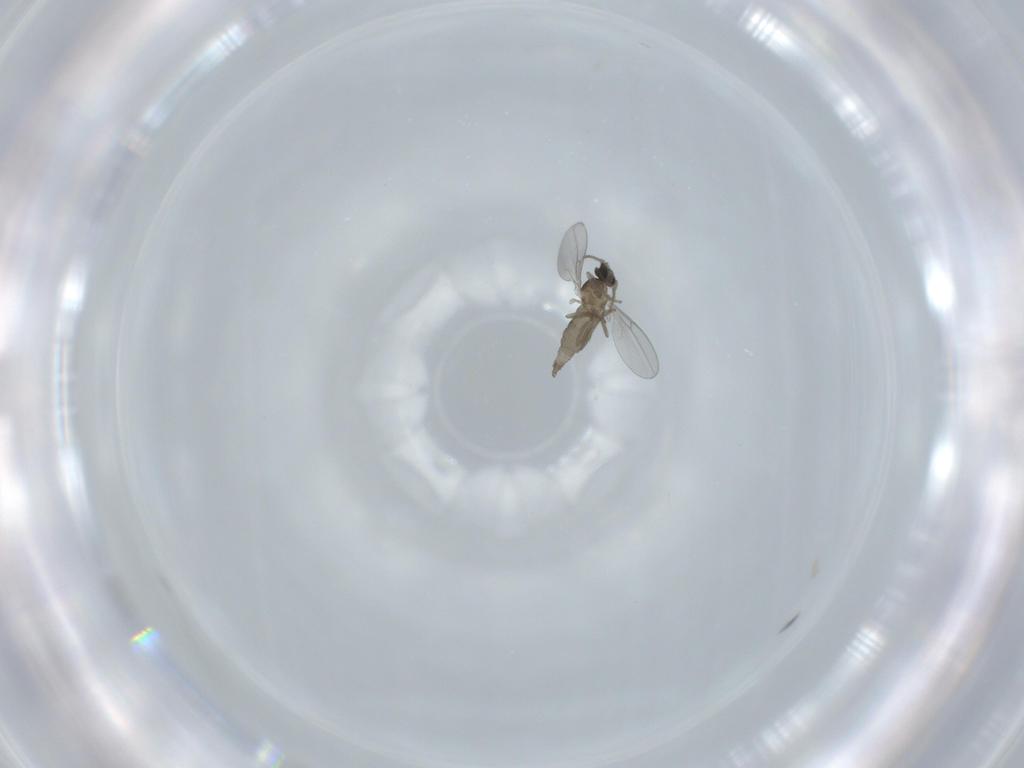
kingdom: Animalia
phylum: Arthropoda
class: Insecta
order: Diptera
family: Cecidomyiidae
